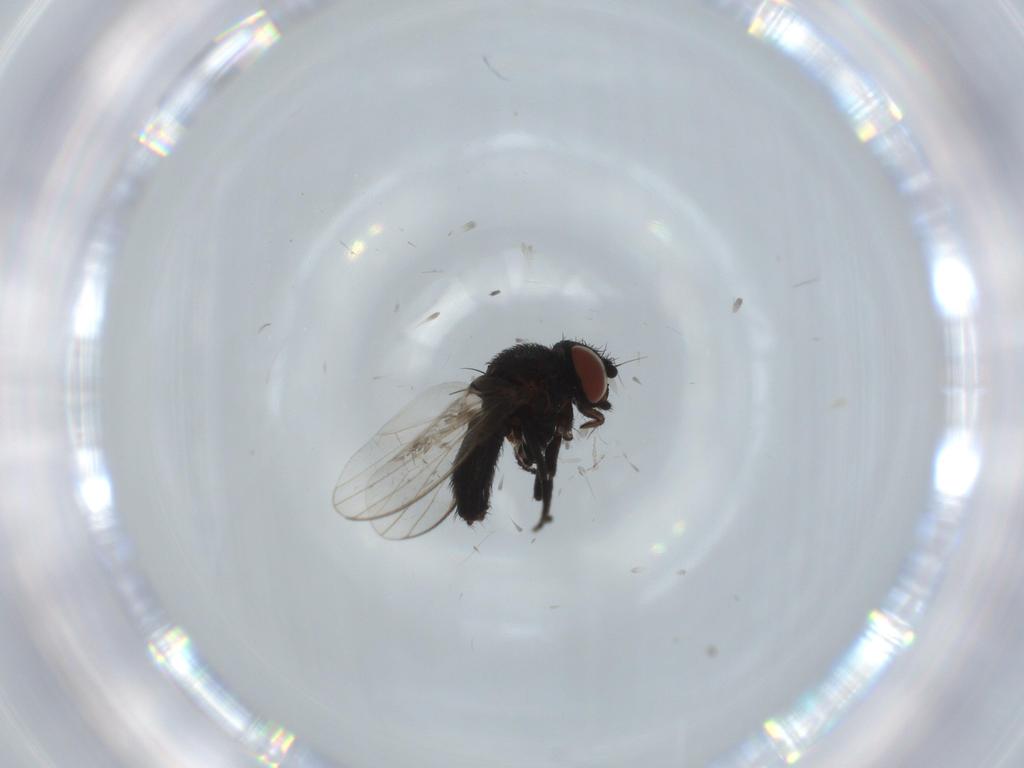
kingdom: Animalia
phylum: Arthropoda
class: Insecta
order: Diptera
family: Milichiidae
